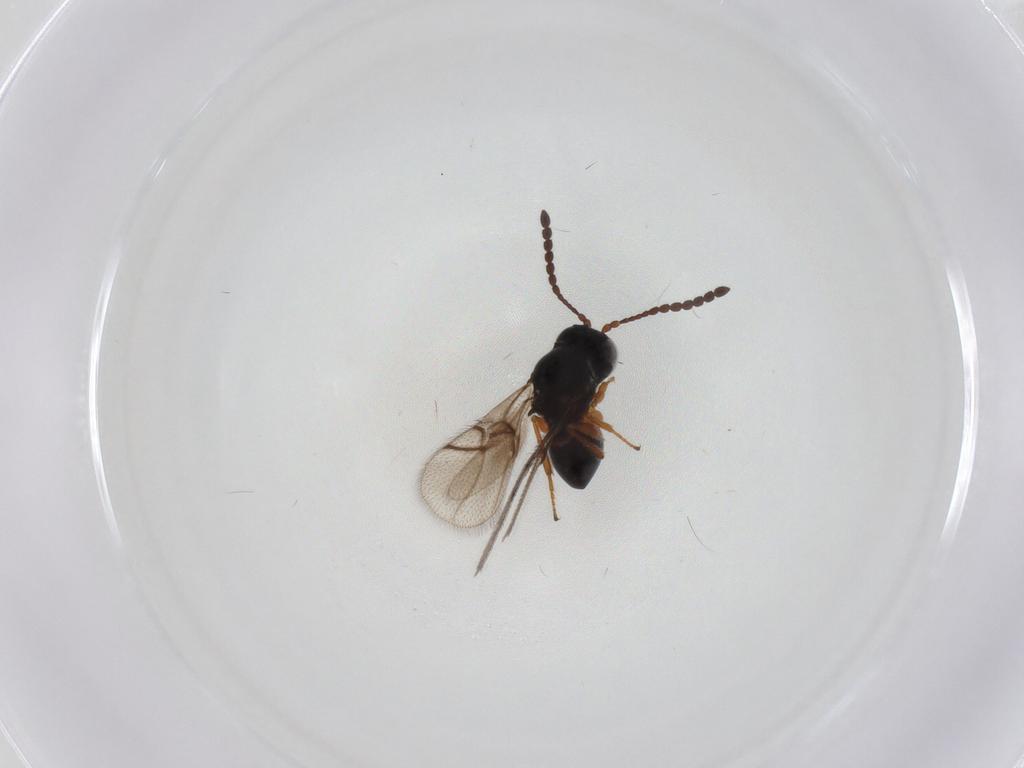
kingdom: Animalia
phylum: Arthropoda
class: Insecta
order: Hymenoptera
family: Figitidae
